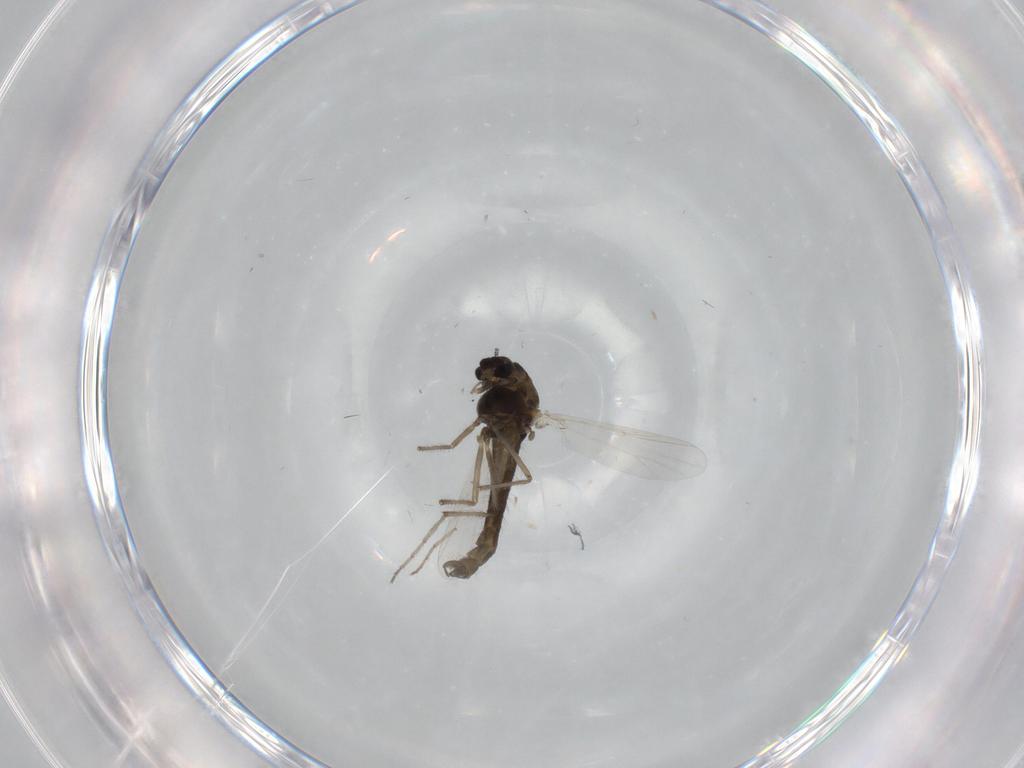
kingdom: Animalia
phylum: Arthropoda
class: Insecta
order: Diptera
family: Chironomidae
